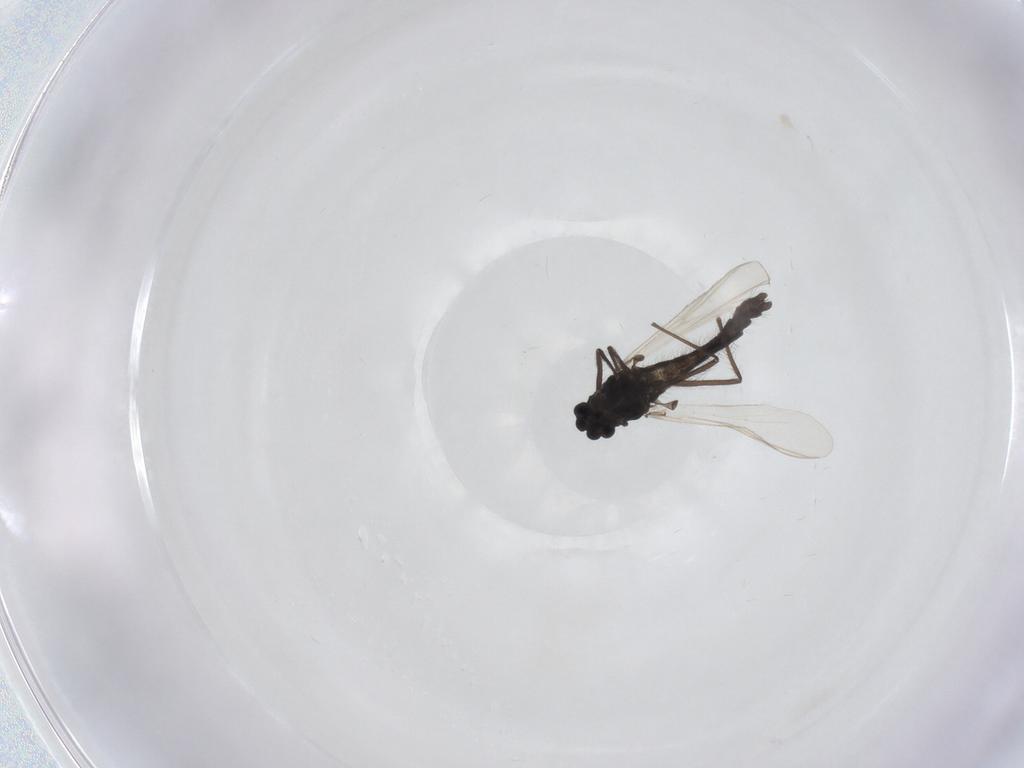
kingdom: Animalia
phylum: Arthropoda
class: Insecta
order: Diptera
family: Chironomidae
